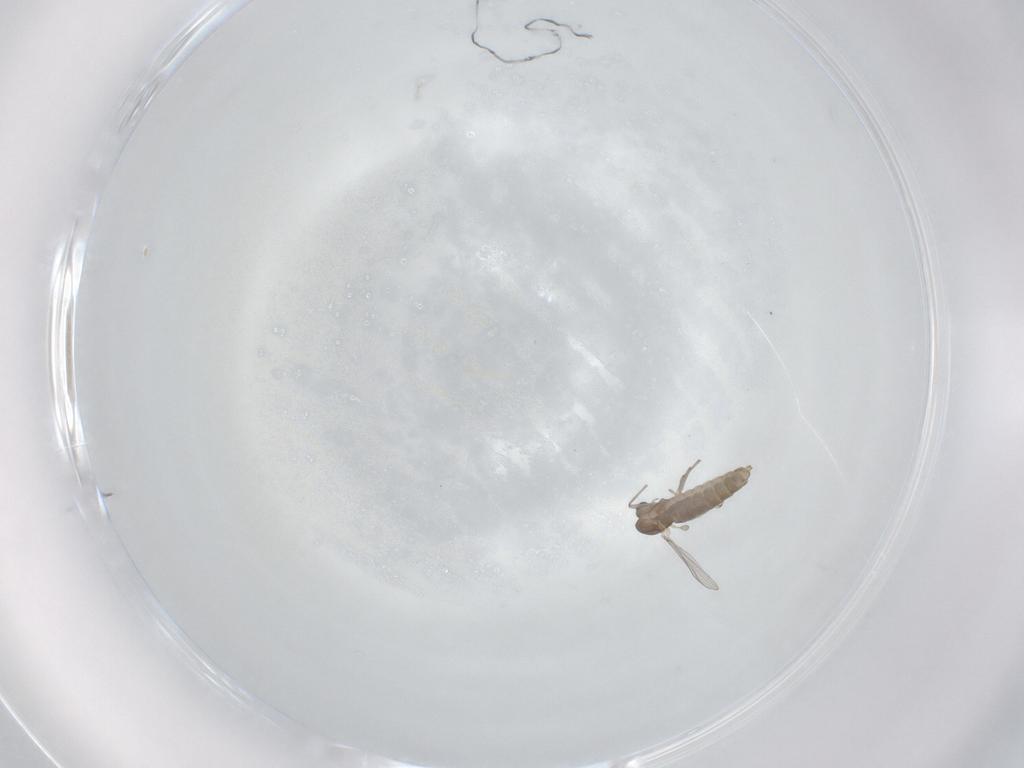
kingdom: Animalia
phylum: Arthropoda
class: Insecta
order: Diptera
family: Chironomidae
